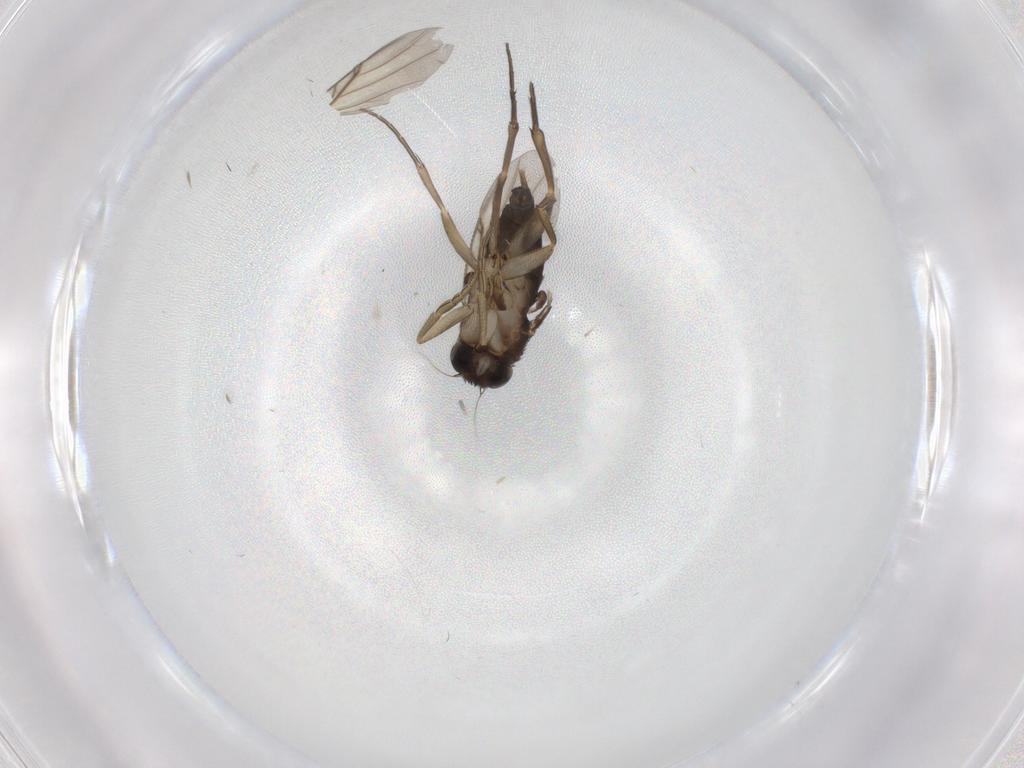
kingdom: Animalia
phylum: Arthropoda
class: Insecta
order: Diptera
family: Phoridae
